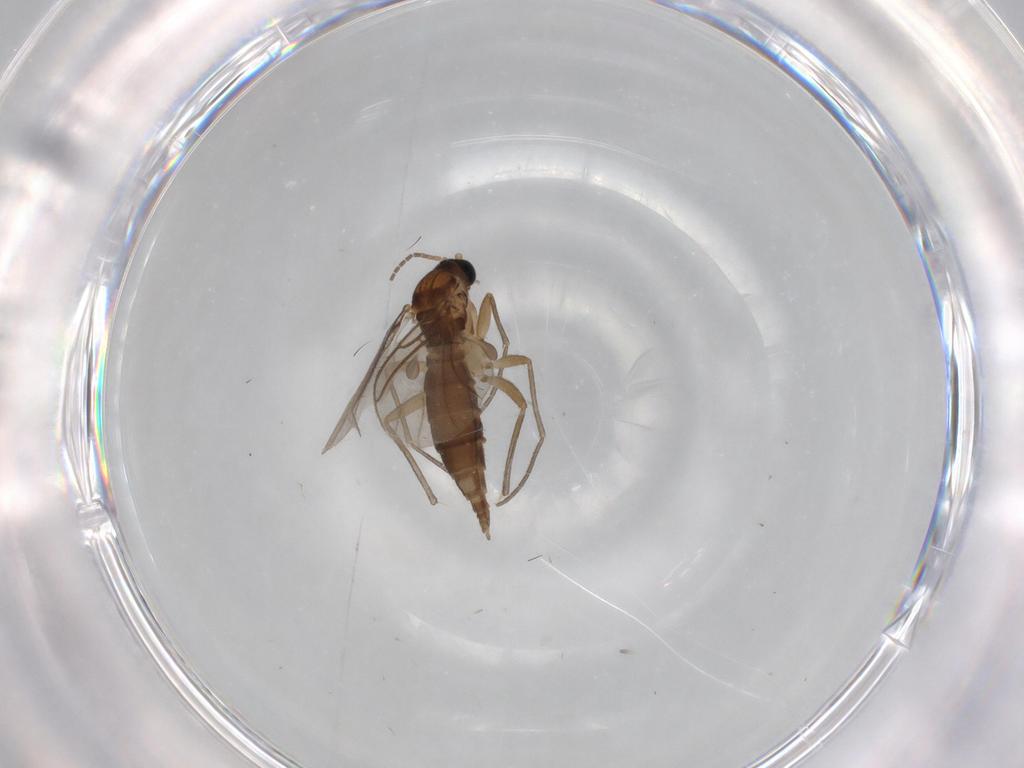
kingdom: Animalia
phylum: Arthropoda
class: Insecta
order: Diptera
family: Sciaridae
